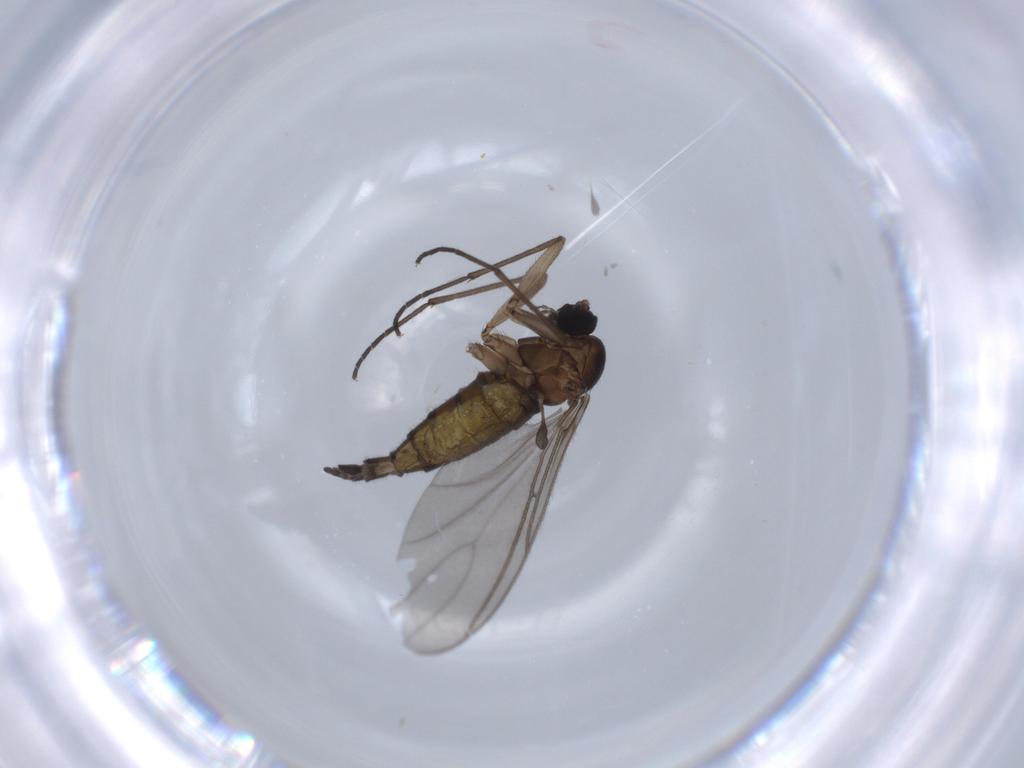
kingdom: Animalia
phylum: Arthropoda
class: Insecta
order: Diptera
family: Sciaridae
